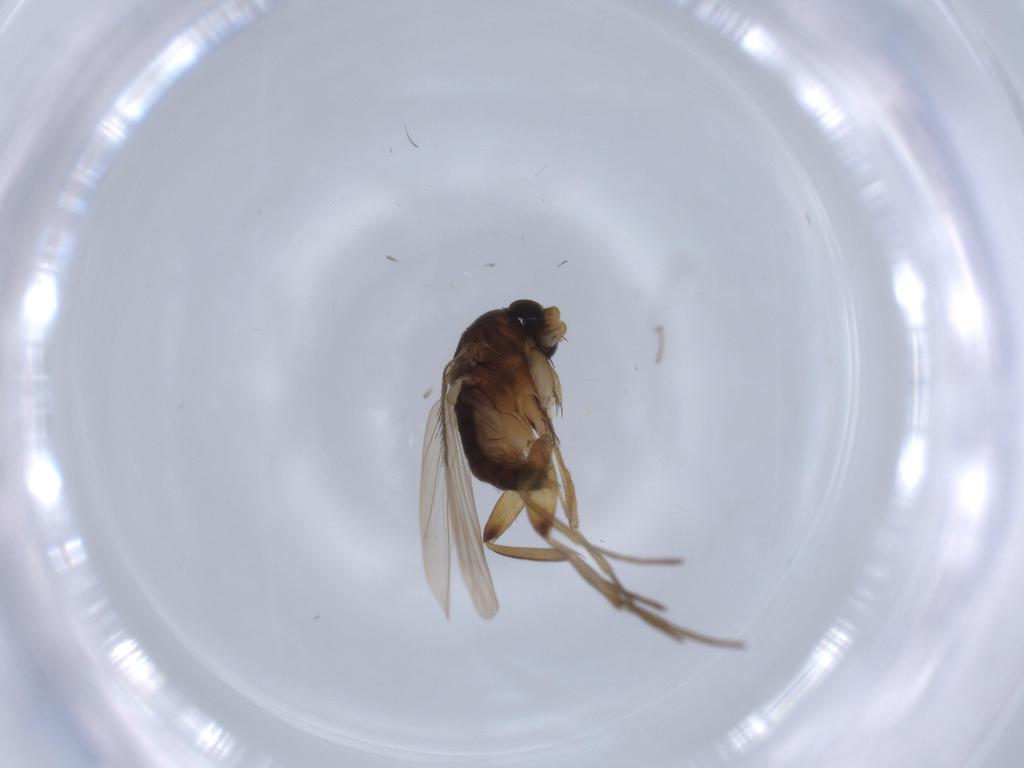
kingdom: Animalia
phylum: Arthropoda
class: Insecta
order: Diptera
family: Phoridae
